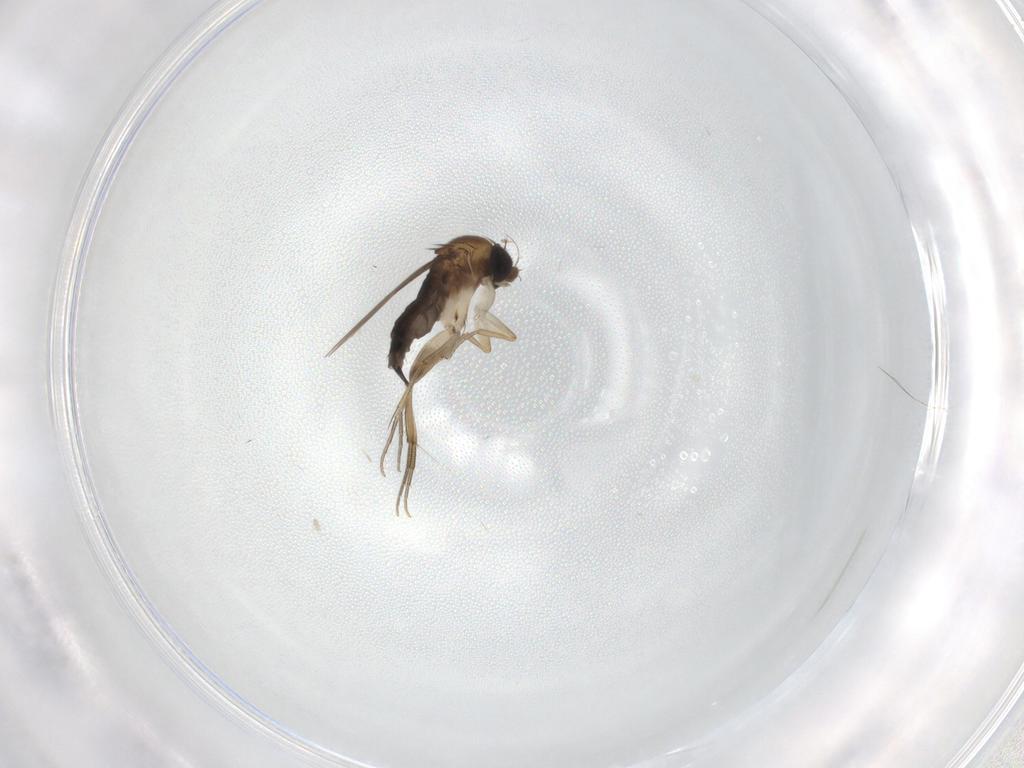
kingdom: Animalia
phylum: Arthropoda
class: Insecta
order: Diptera
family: Phoridae
